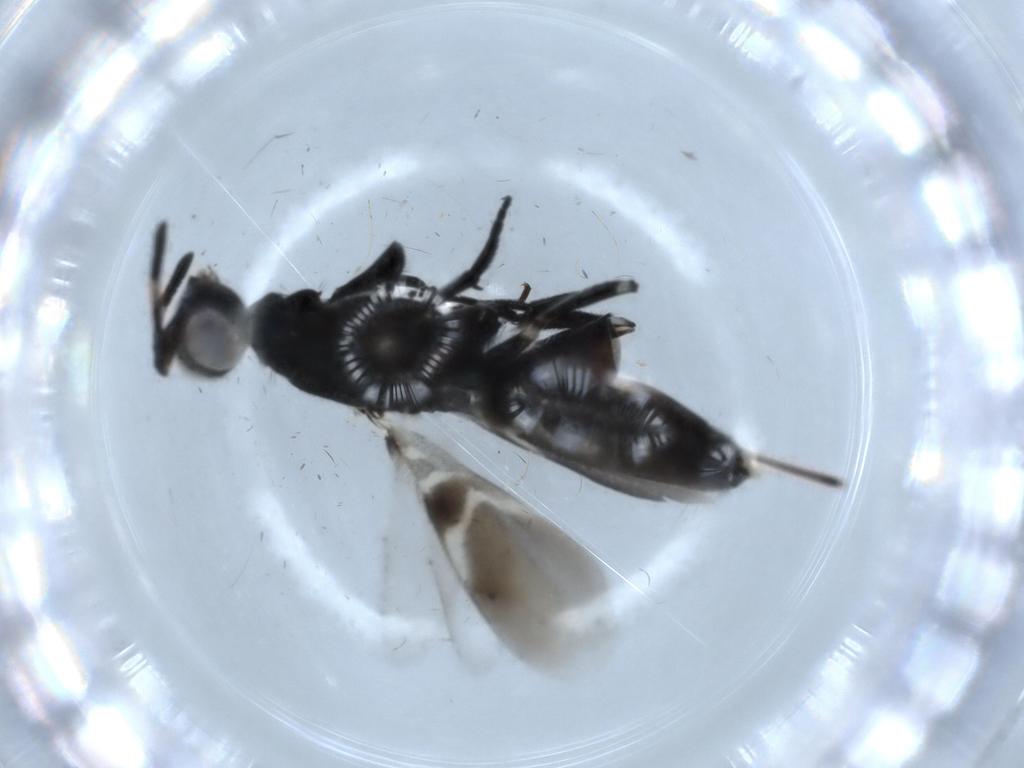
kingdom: Animalia
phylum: Arthropoda
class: Insecta
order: Hymenoptera
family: Eupelmidae
